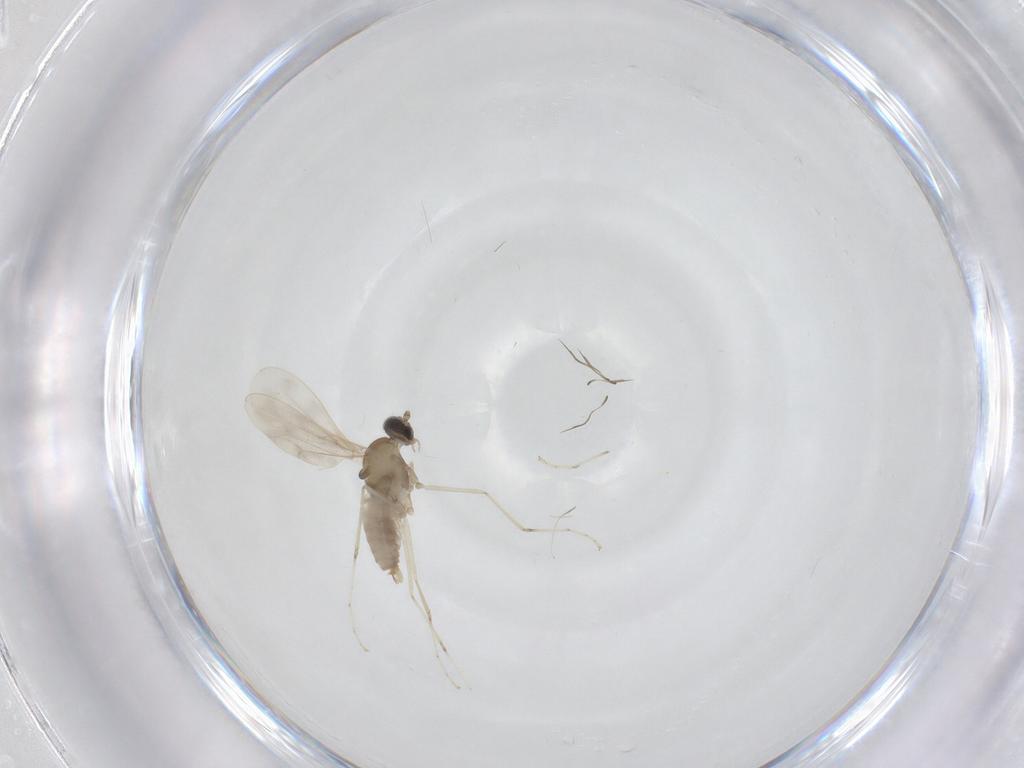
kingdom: Animalia
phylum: Arthropoda
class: Insecta
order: Diptera
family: Cecidomyiidae
